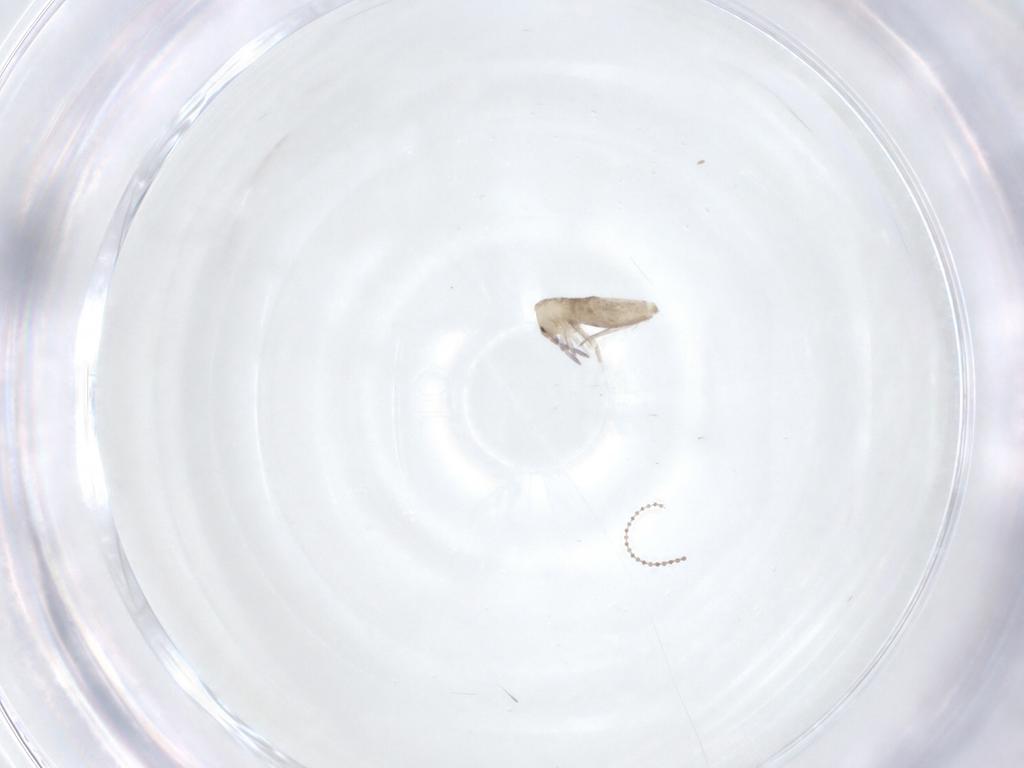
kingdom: Animalia
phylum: Arthropoda
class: Collembola
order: Entomobryomorpha
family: Entomobryidae
